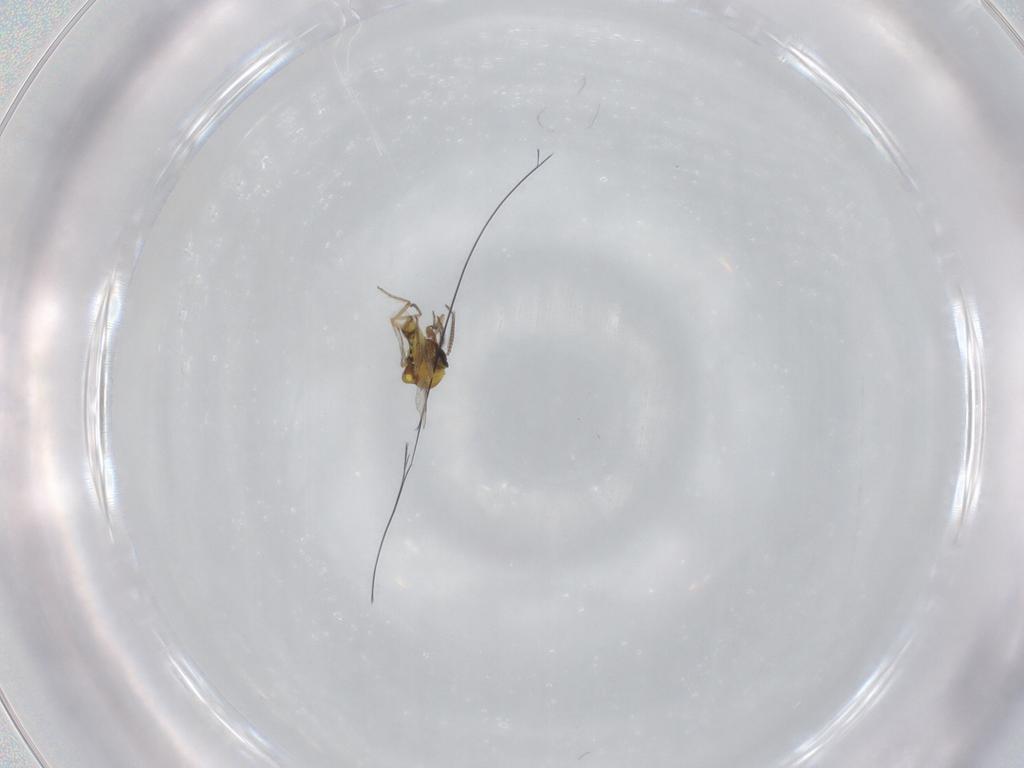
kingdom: Animalia
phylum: Arthropoda
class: Insecta
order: Diptera
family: Ceratopogonidae
